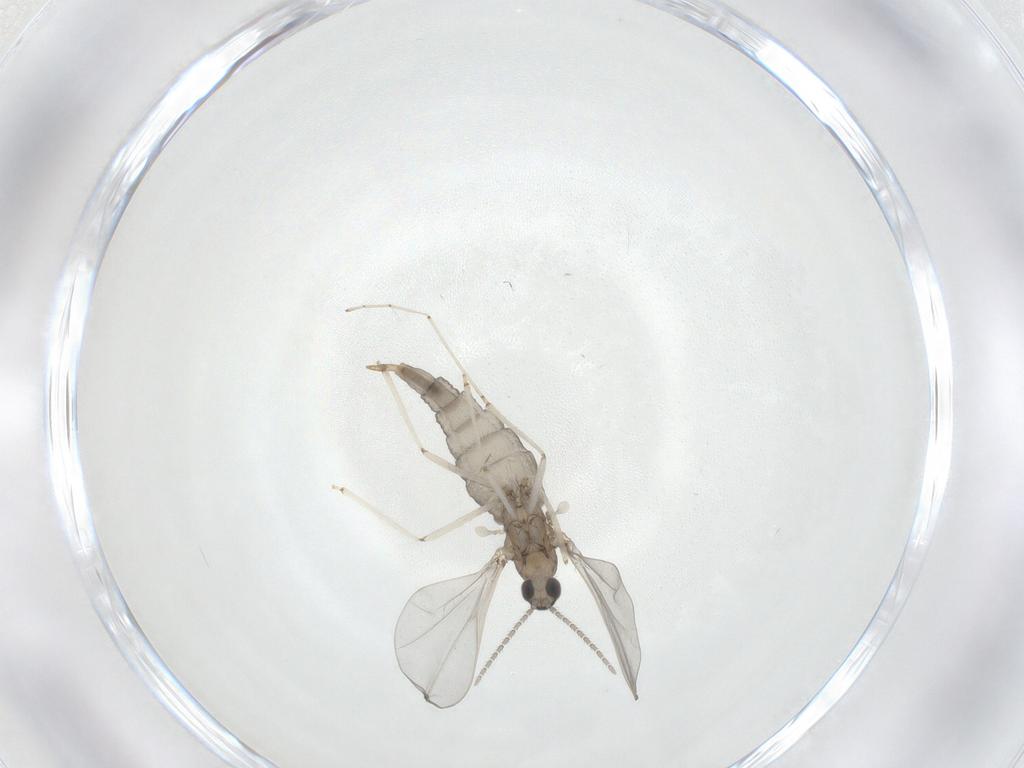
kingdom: Animalia
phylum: Arthropoda
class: Insecta
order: Diptera
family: Cecidomyiidae
